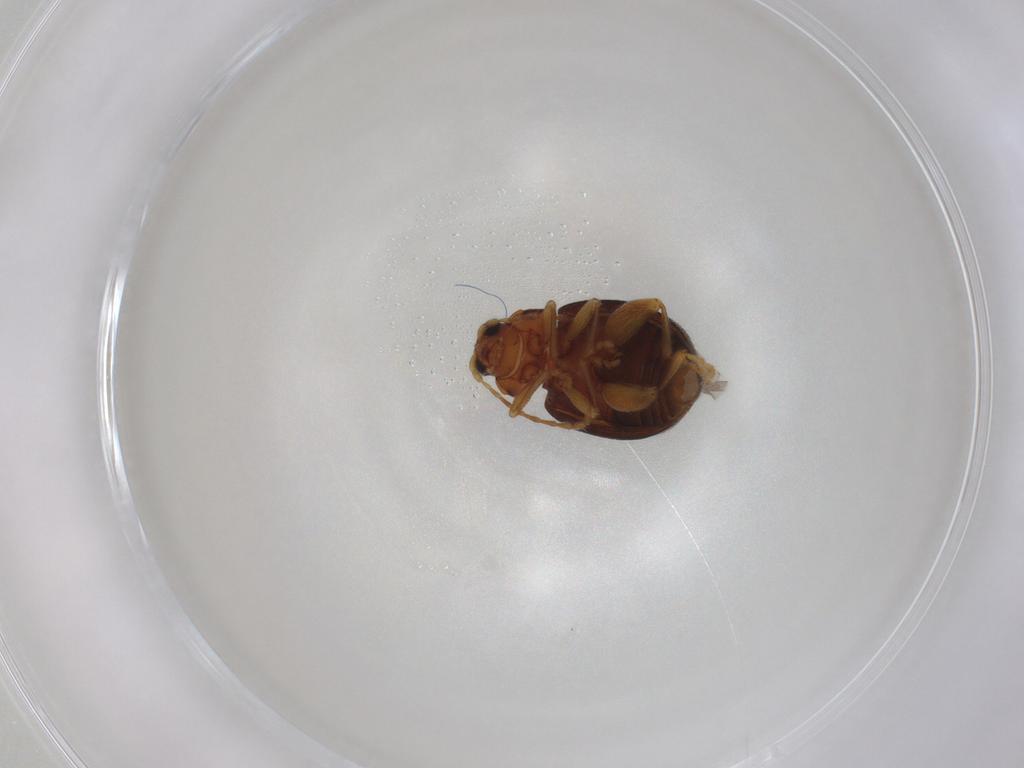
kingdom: Animalia
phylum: Arthropoda
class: Insecta
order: Coleoptera
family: Chrysomelidae
